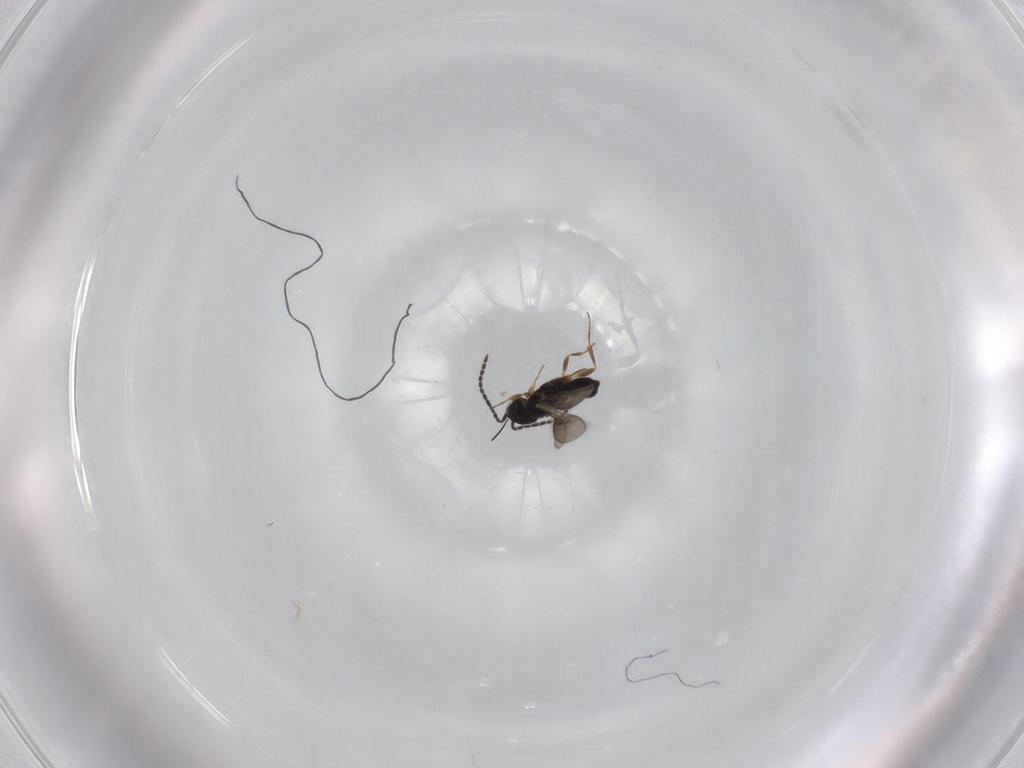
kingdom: Animalia
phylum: Arthropoda
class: Insecta
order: Hymenoptera
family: Scelionidae
